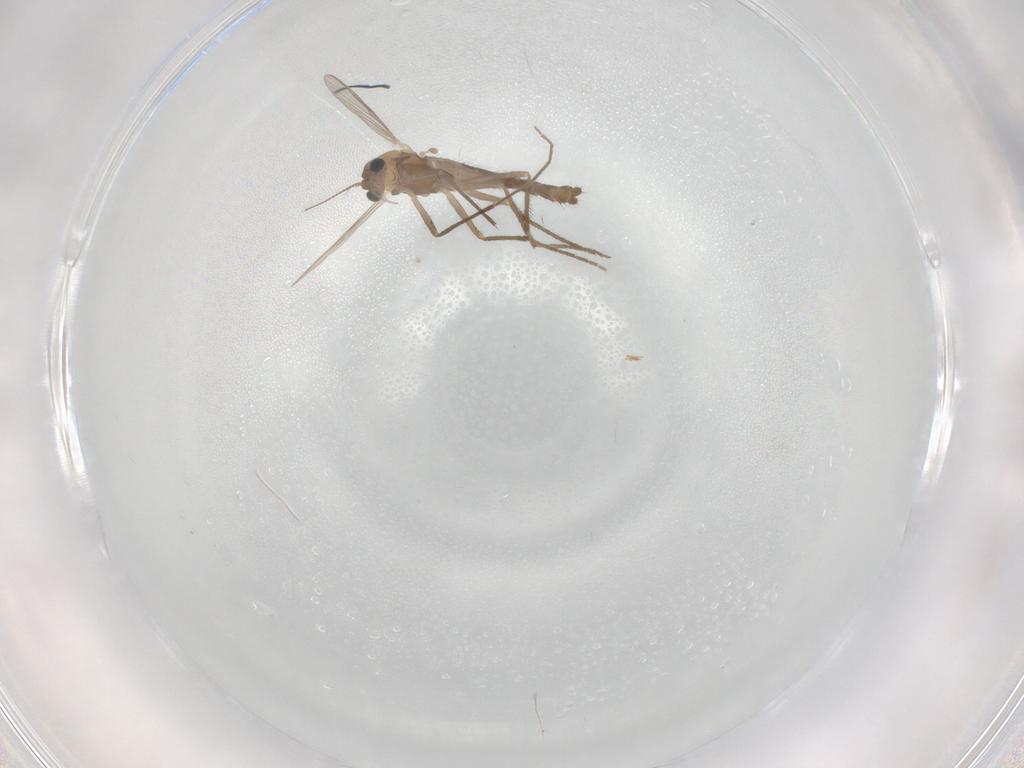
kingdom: Animalia
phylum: Arthropoda
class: Insecta
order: Diptera
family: Chironomidae
